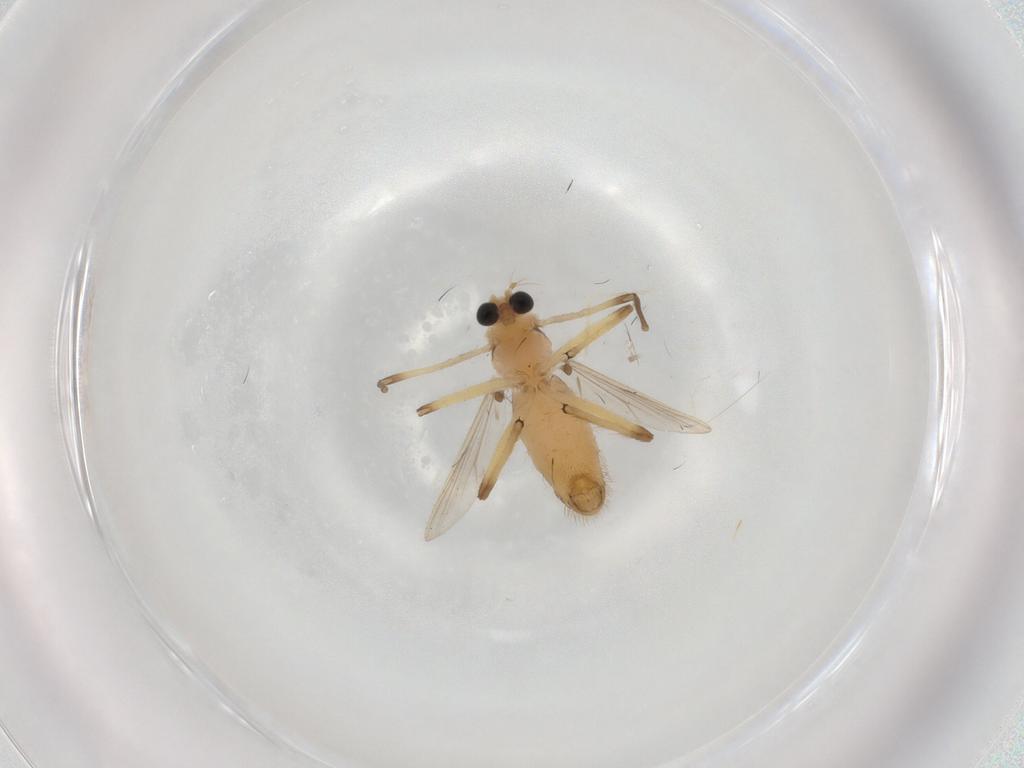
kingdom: Animalia
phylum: Arthropoda
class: Insecta
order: Diptera
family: Chironomidae
